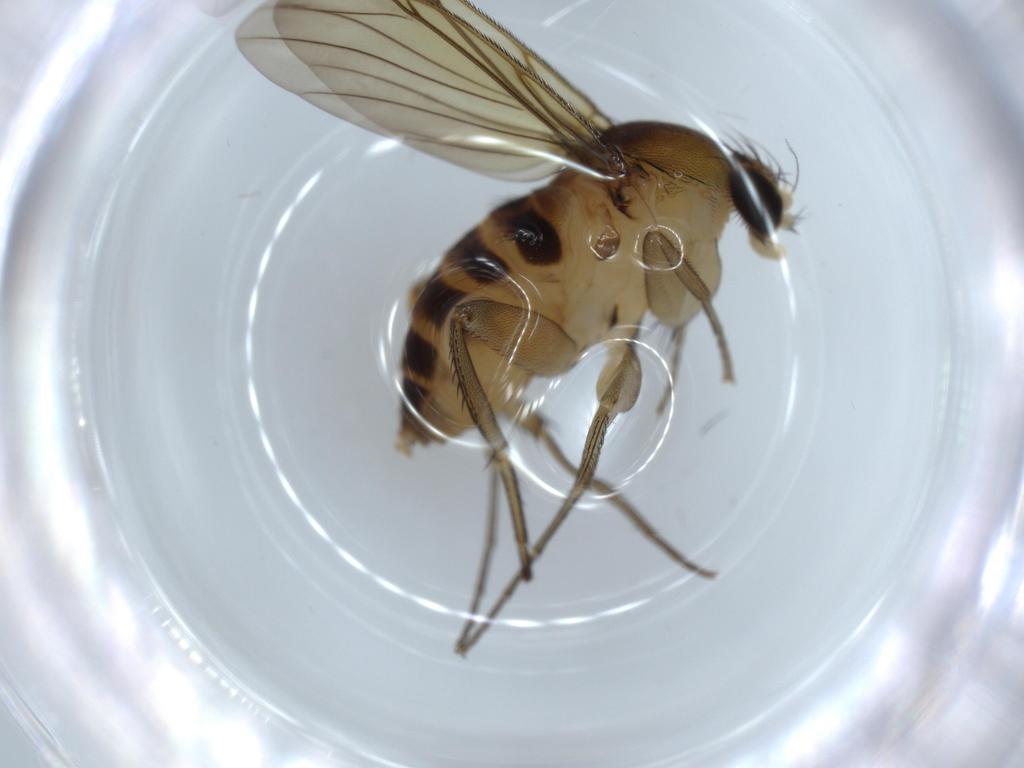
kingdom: Animalia
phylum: Arthropoda
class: Insecta
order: Diptera
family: Phoridae
